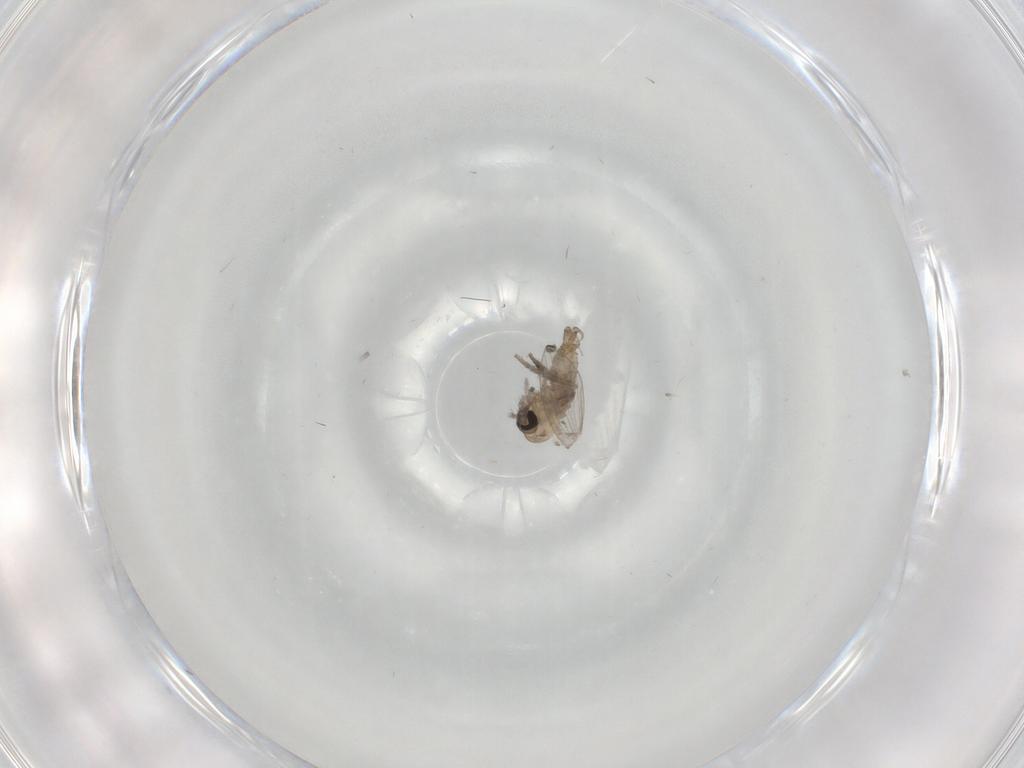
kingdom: Animalia
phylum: Arthropoda
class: Insecta
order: Diptera
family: Psychodidae
